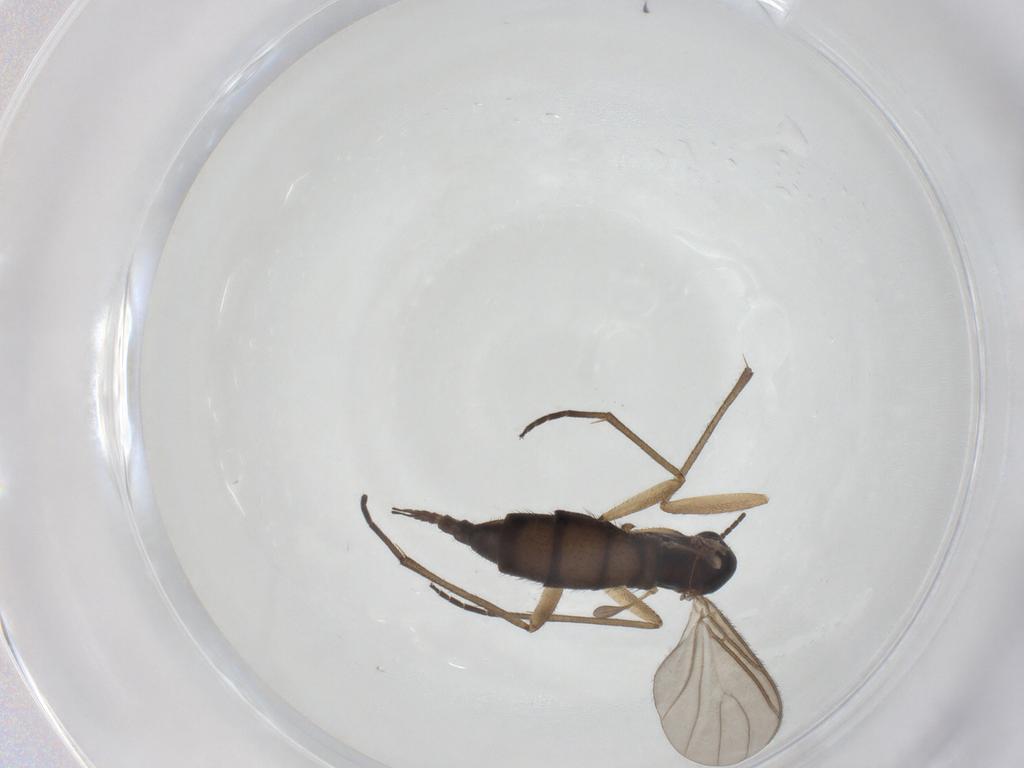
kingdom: Animalia
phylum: Arthropoda
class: Insecta
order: Diptera
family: Sciaridae
